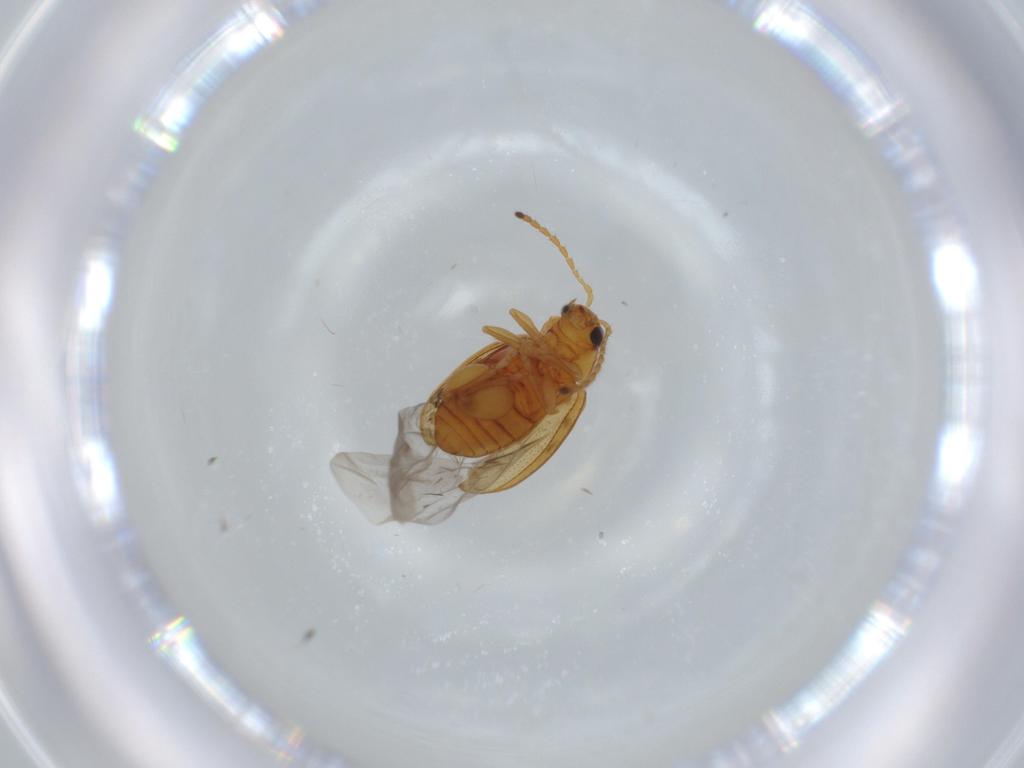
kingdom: Animalia
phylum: Arthropoda
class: Insecta
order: Coleoptera
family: Chrysomelidae
